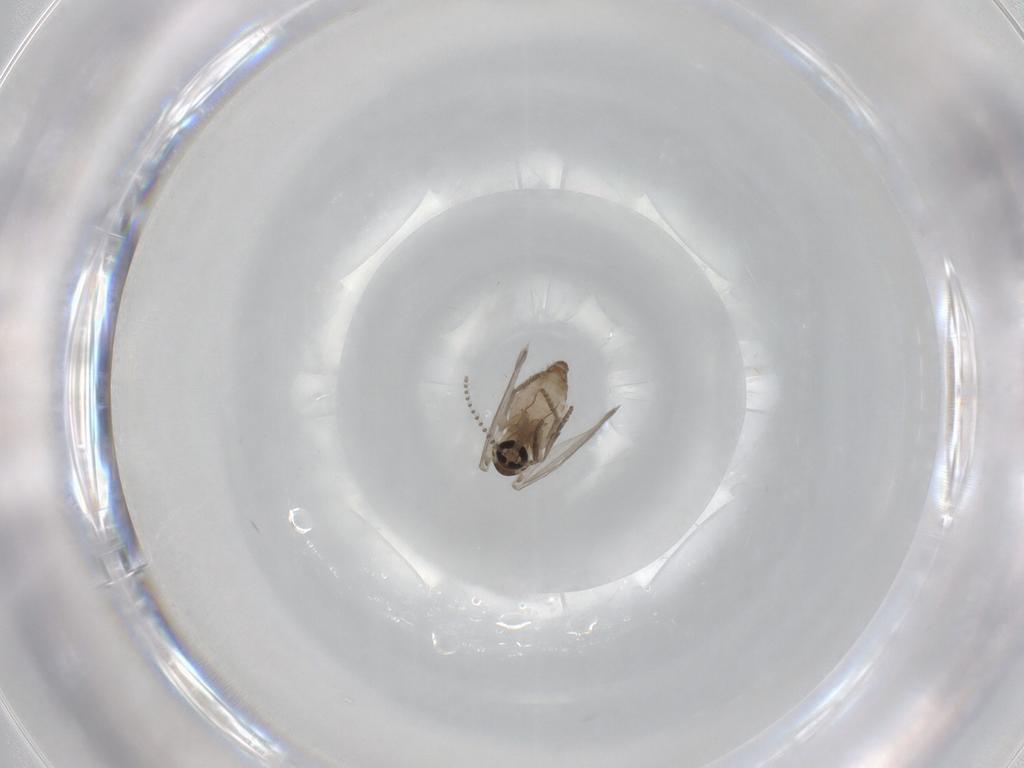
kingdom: Animalia
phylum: Arthropoda
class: Insecta
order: Diptera
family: Psychodidae
